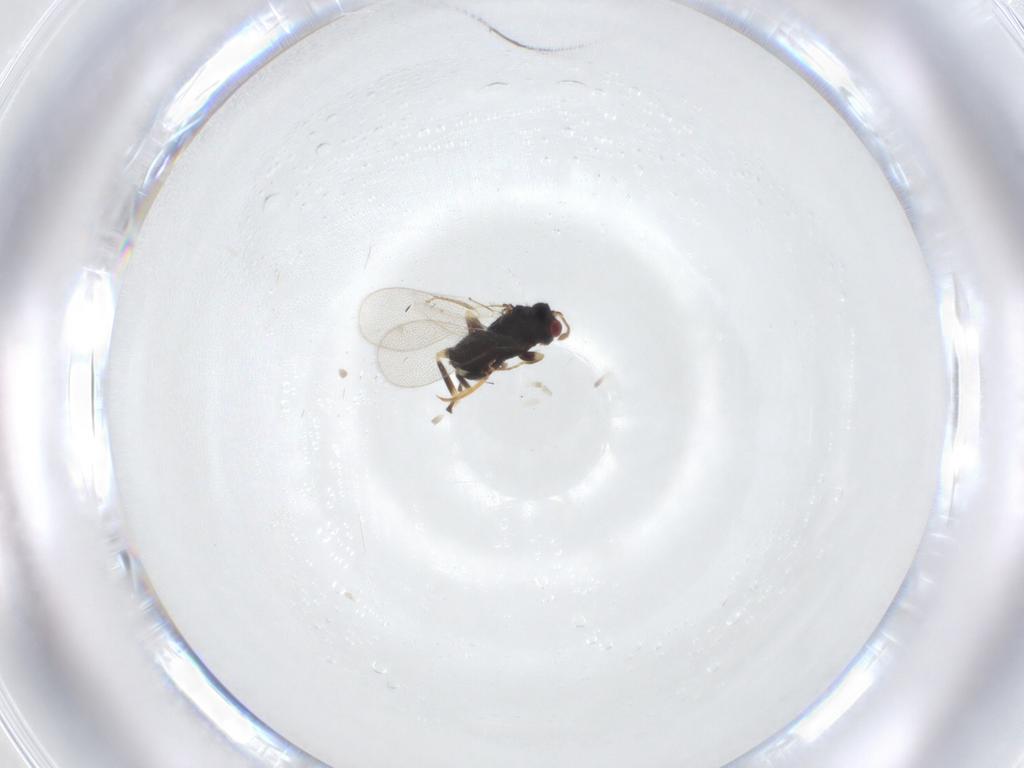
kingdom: Animalia
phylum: Arthropoda
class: Insecta
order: Hymenoptera
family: Eulophidae
